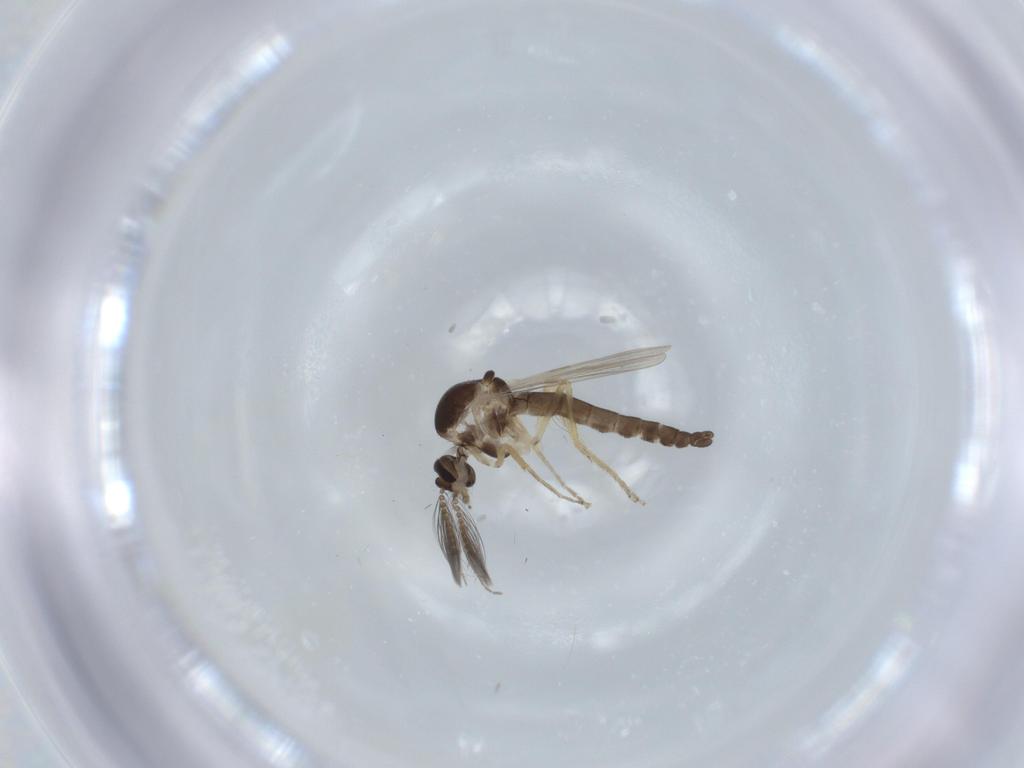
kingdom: Animalia
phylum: Arthropoda
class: Insecta
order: Diptera
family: Ceratopogonidae
